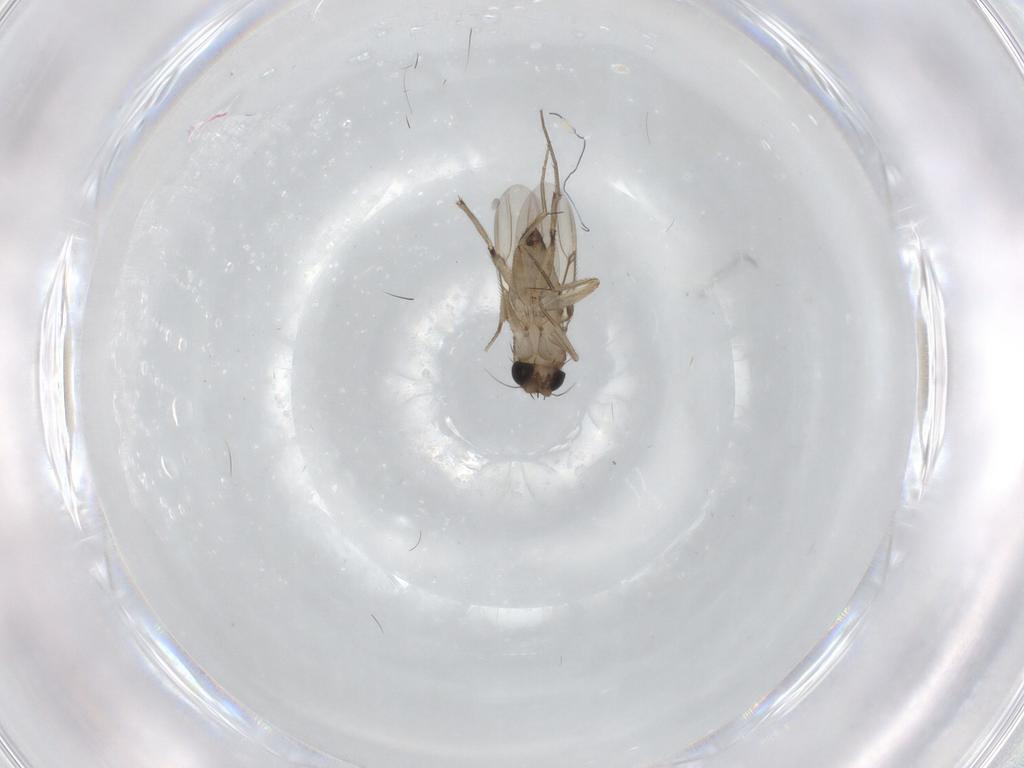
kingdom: Animalia
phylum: Arthropoda
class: Insecta
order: Diptera
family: Phoridae
